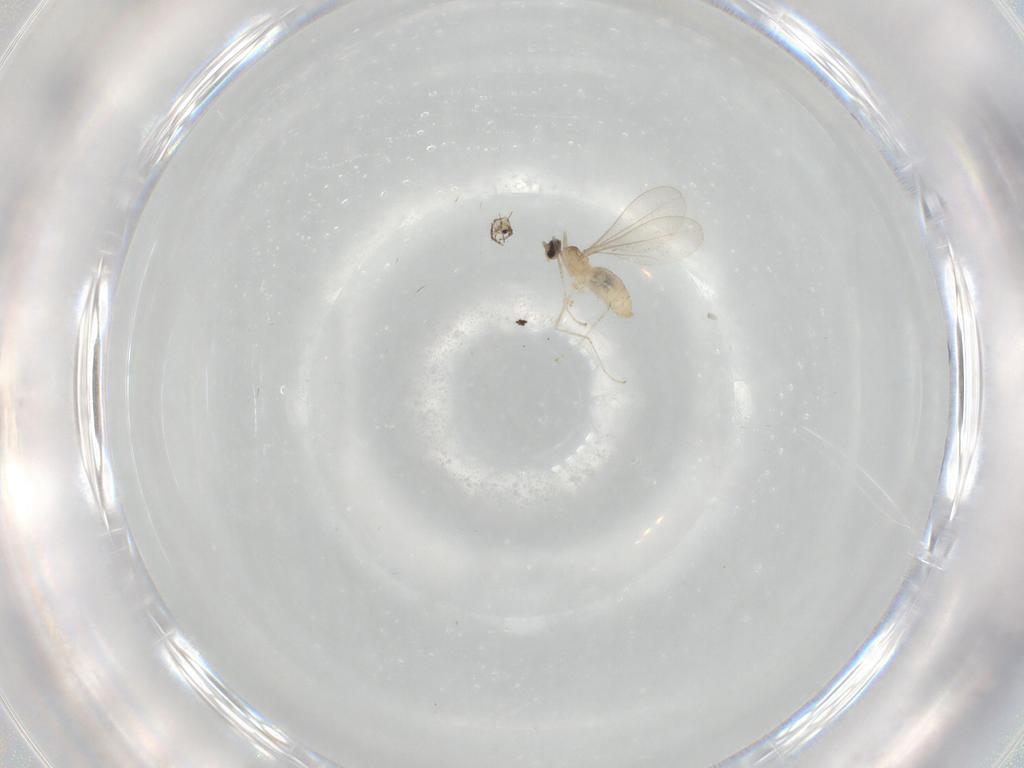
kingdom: Animalia
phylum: Arthropoda
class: Insecta
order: Diptera
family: Cecidomyiidae
